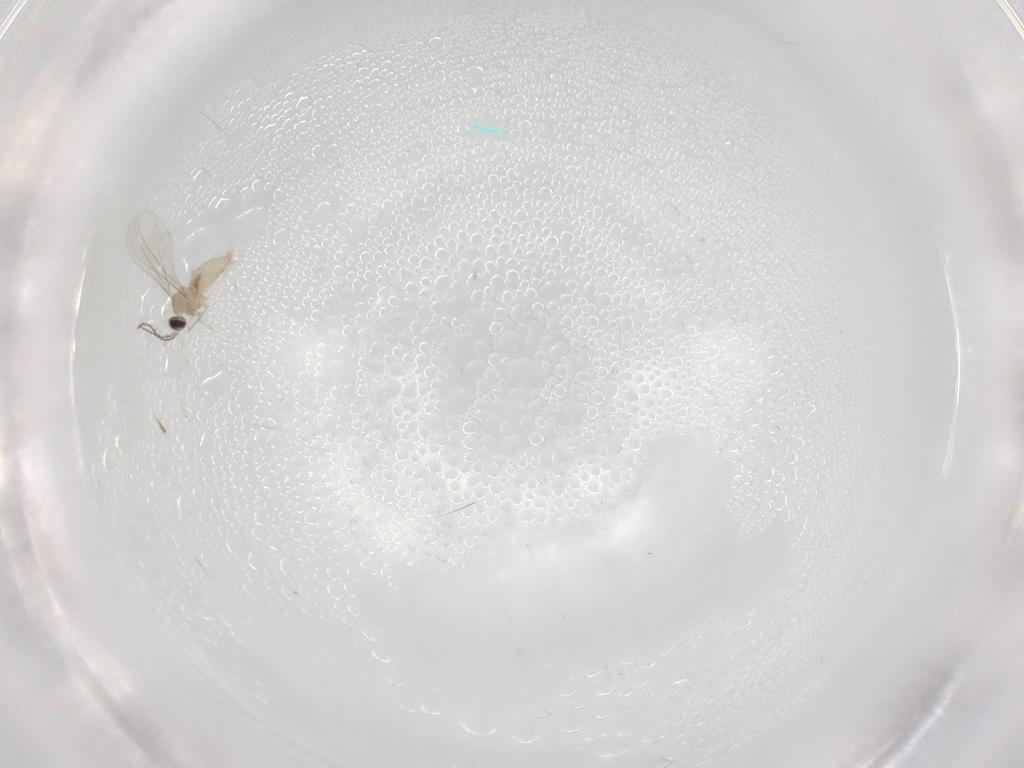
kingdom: Animalia
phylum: Arthropoda
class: Insecta
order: Diptera
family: Cecidomyiidae
